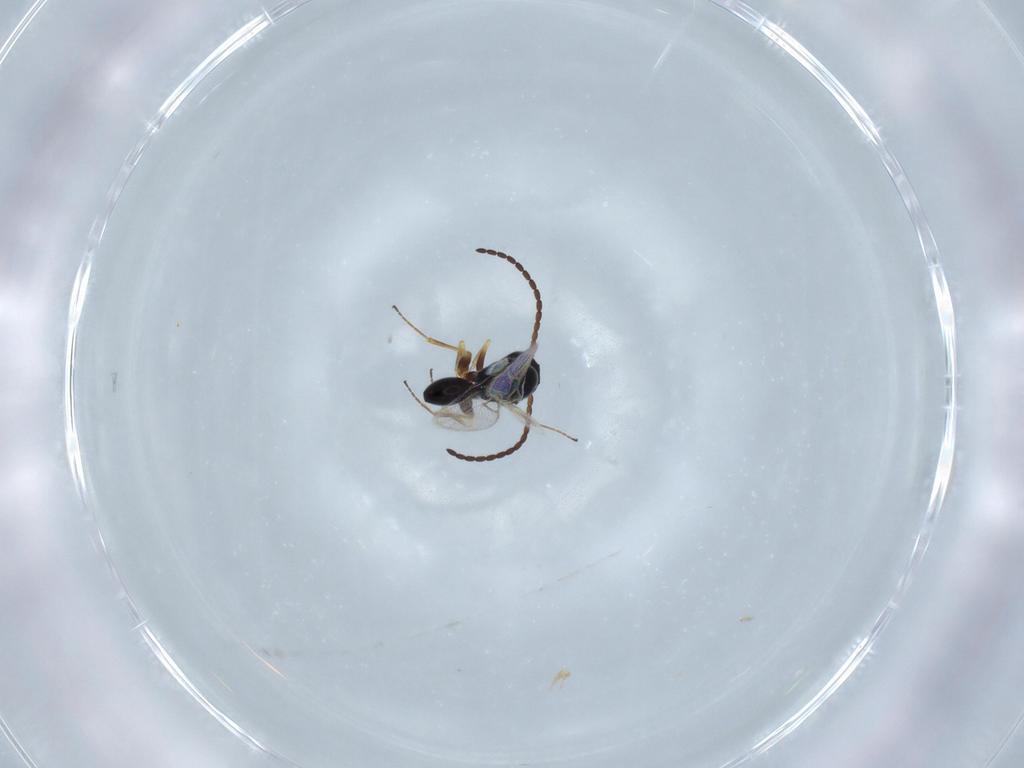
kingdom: Animalia
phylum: Arthropoda
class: Insecta
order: Hymenoptera
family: Figitidae
